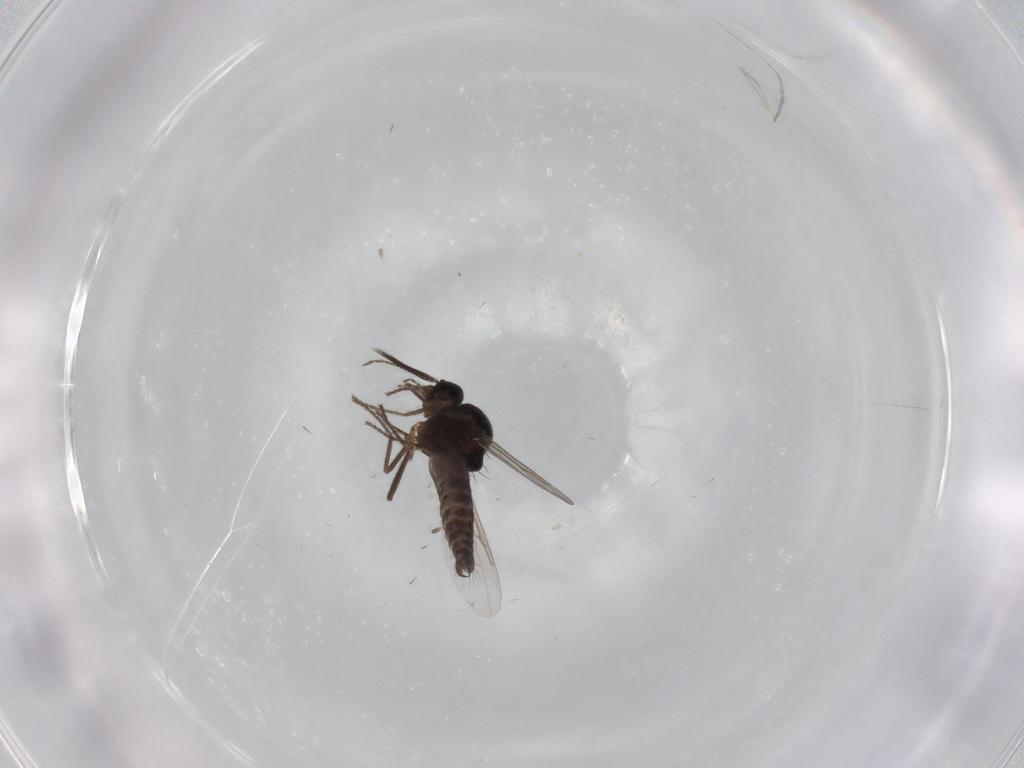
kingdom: Animalia
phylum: Arthropoda
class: Insecta
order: Diptera
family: Ceratopogonidae
